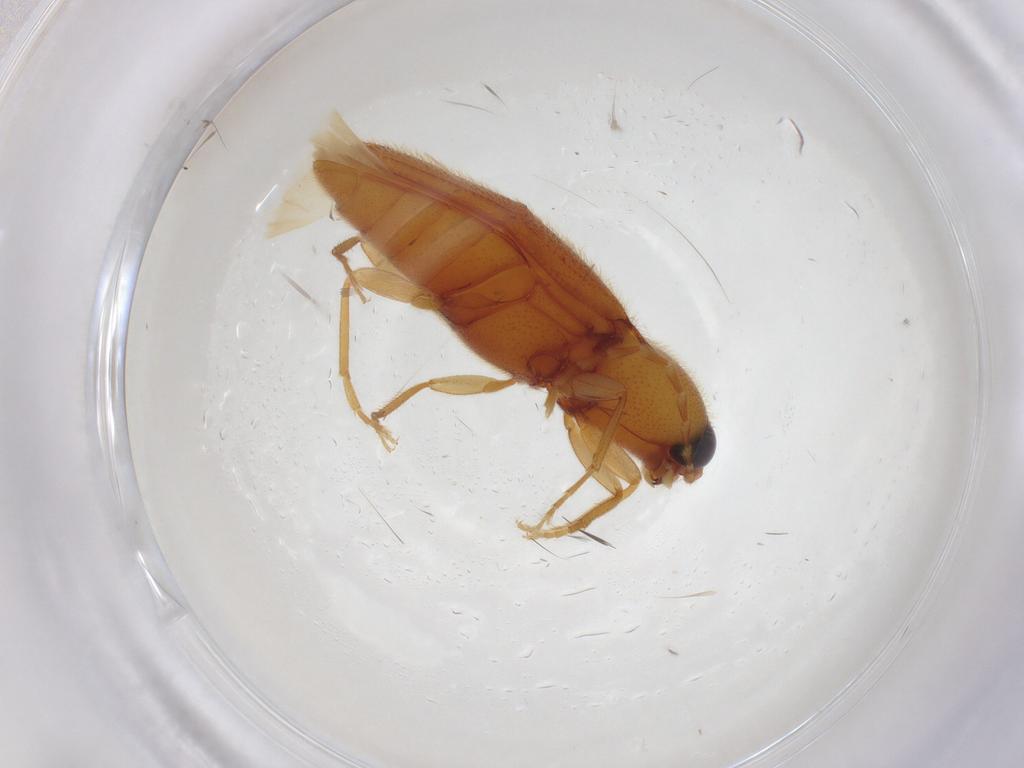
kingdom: Animalia
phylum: Arthropoda
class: Insecta
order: Coleoptera
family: Elateridae
